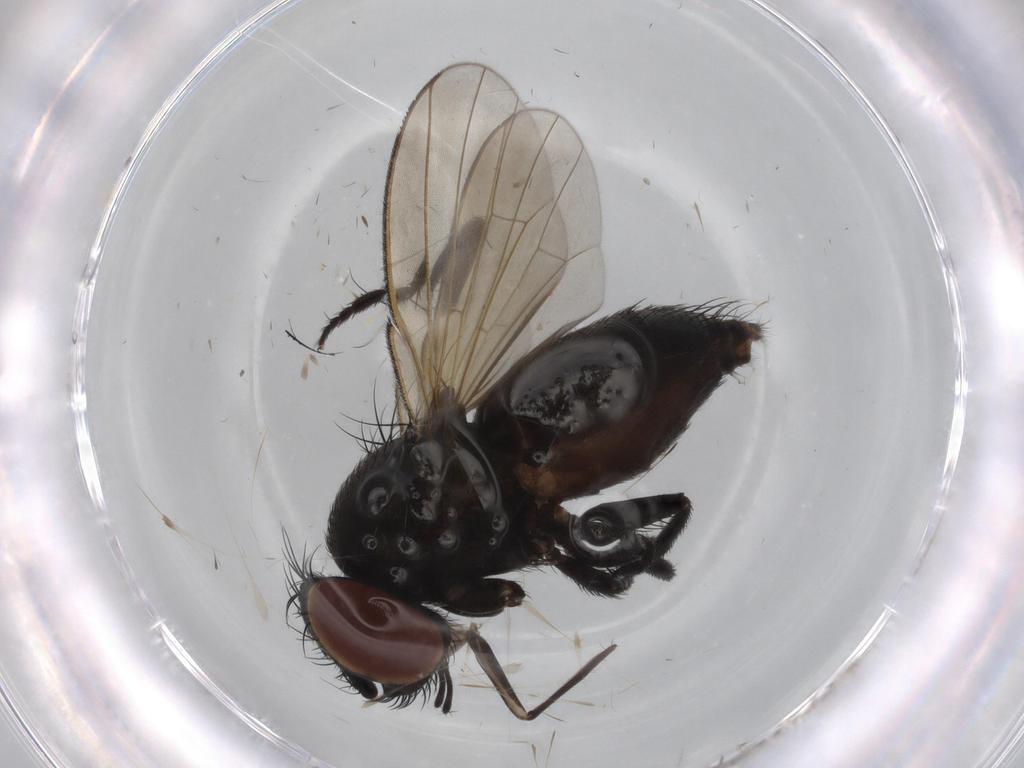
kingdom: Animalia
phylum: Arthropoda
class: Insecta
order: Diptera
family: Milichiidae
